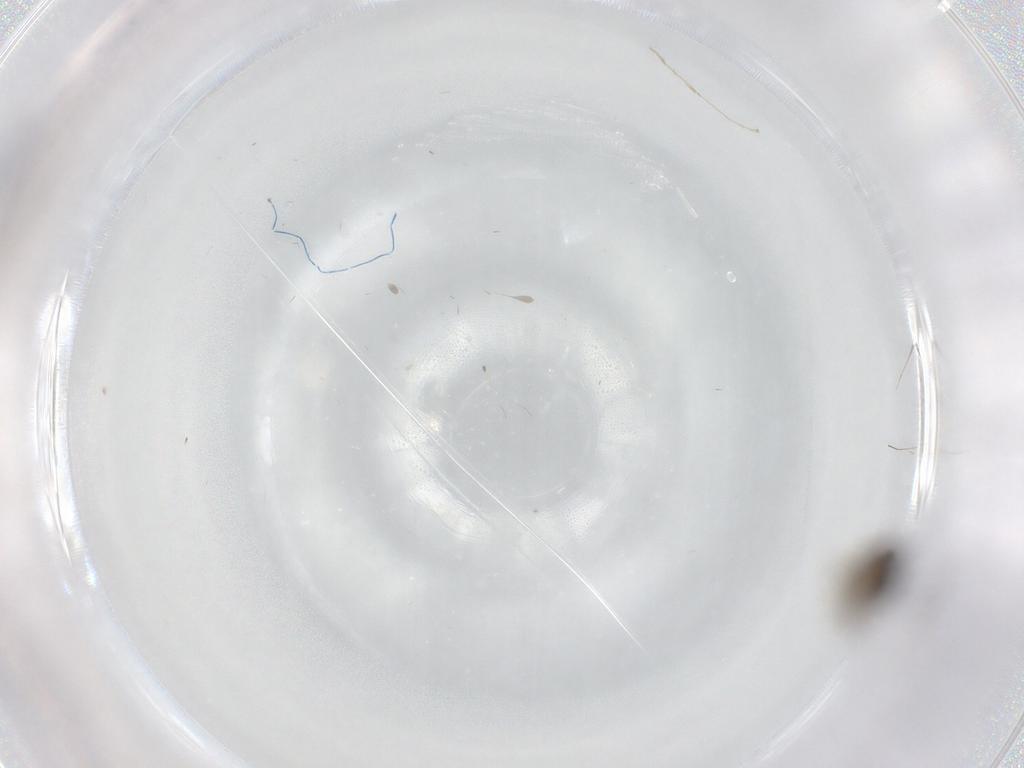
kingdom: Animalia
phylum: Arthropoda
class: Insecta
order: Diptera
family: Phoridae
